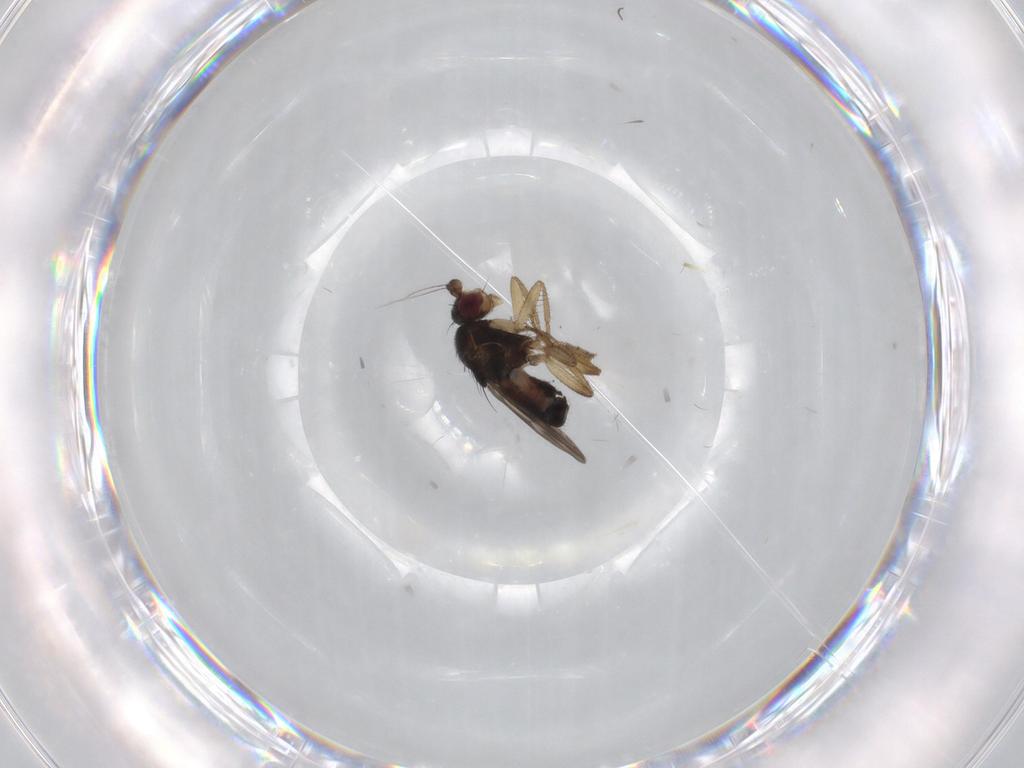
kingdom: Animalia
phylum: Arthropoda
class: Insecta
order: Diptera
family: Sphaeroceridae
